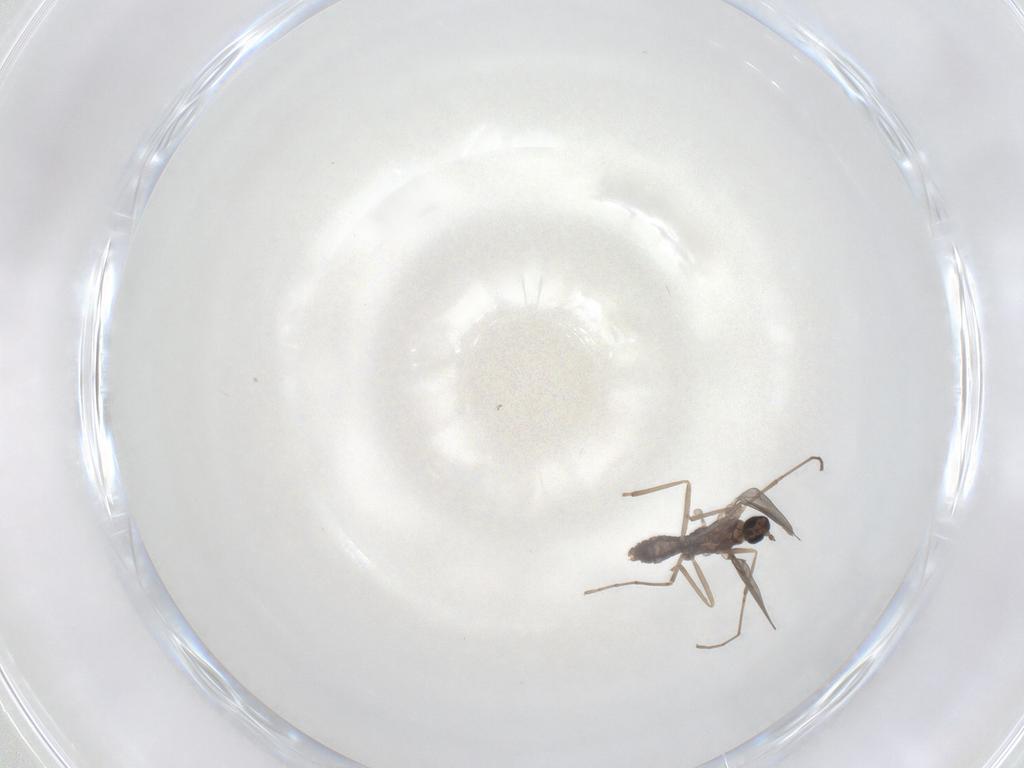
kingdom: Animalia
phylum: Arthropoda
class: Insecta
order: Diptera
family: Cecidomyiidae
